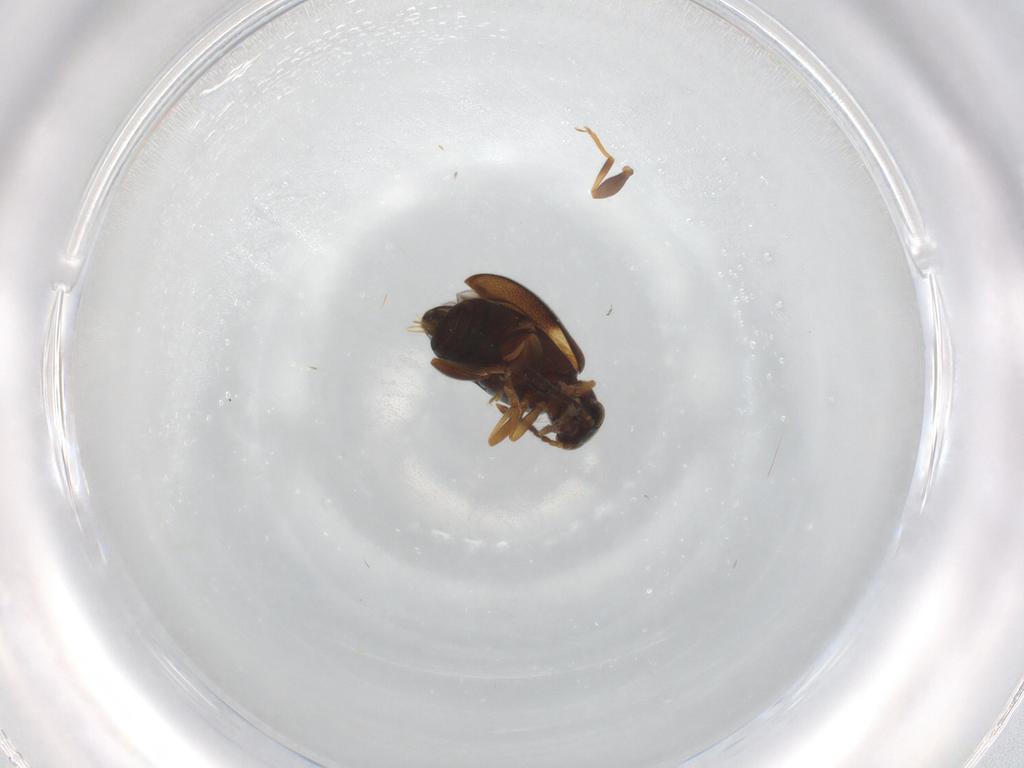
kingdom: Animalia
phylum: Arthropoda
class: Insecta
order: Coleoptera
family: Aderidae
